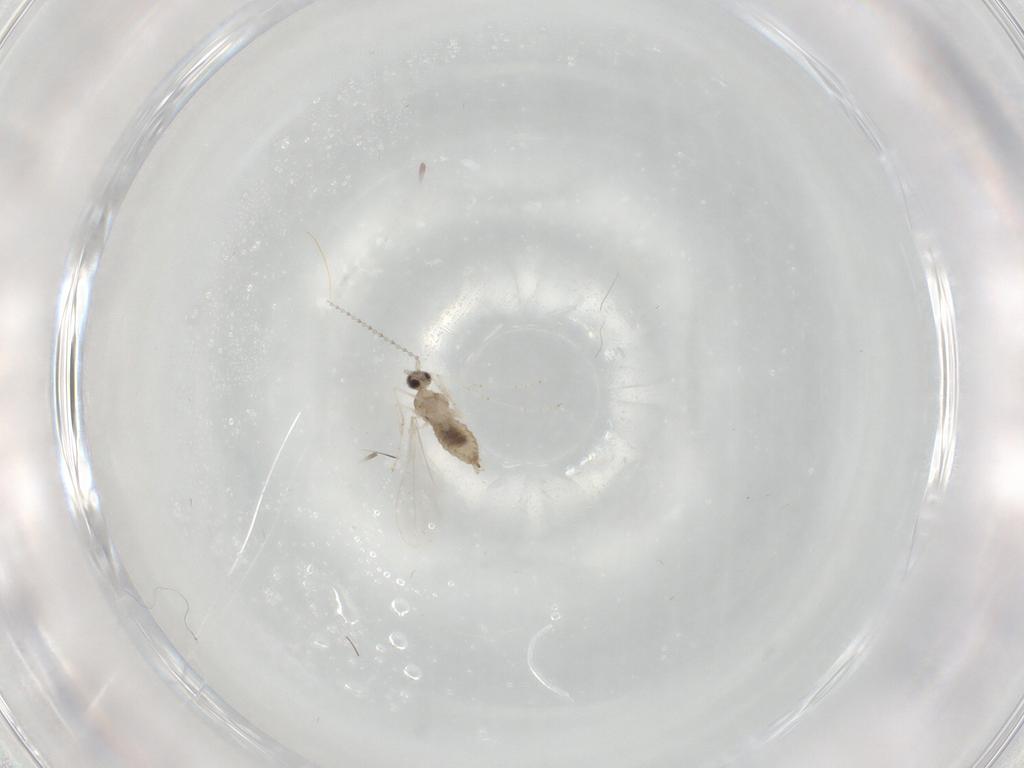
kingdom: Animalia
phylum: Arthropoda
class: Insecta
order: Diptera
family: Cecidomyiidae
